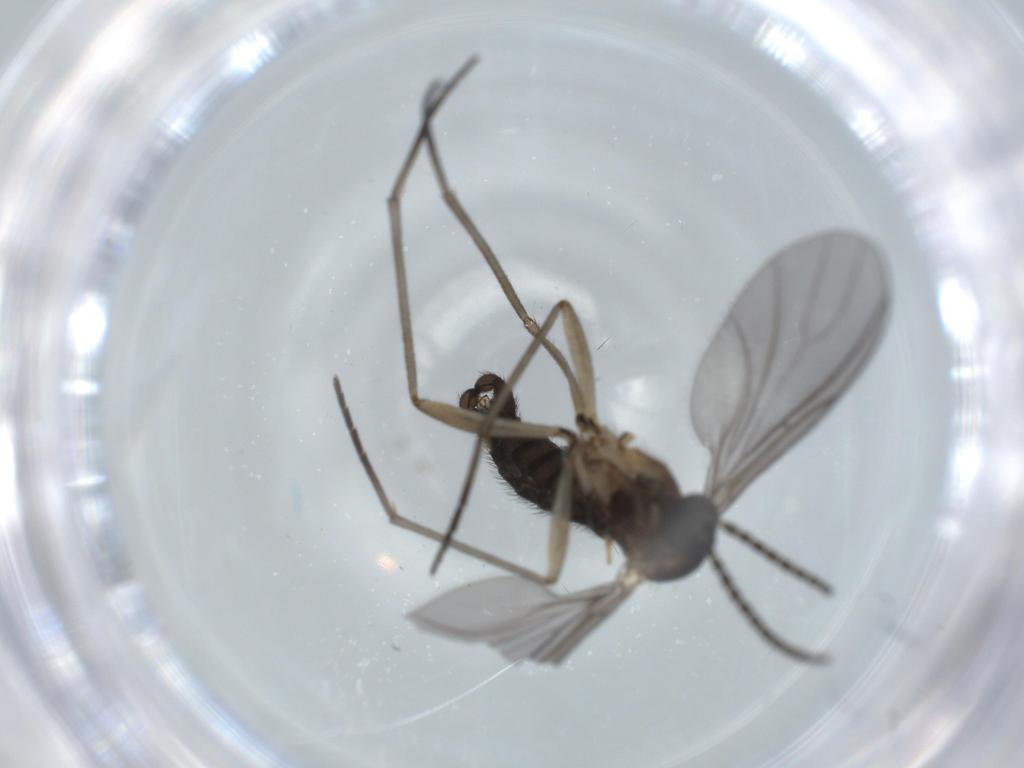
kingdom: Animalia
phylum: Arthropoda
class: Insecta
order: Diptera
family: Sciaridae
